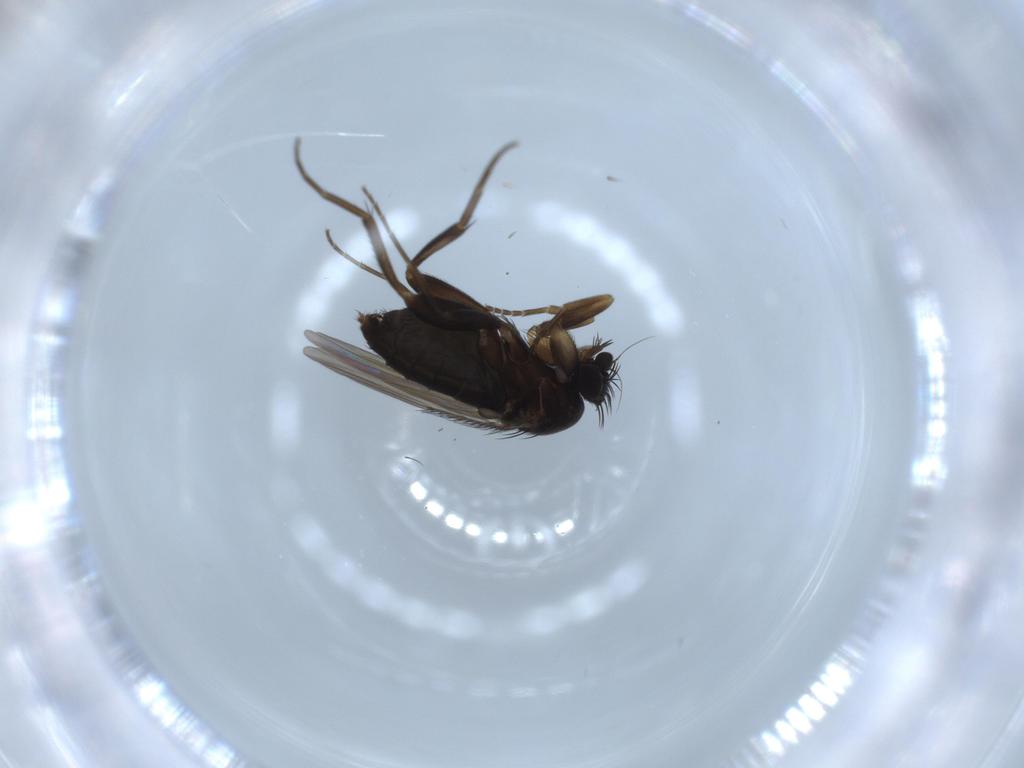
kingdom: Animalia
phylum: Arthropoda
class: Insecta
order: Diptera
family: Phoridae
